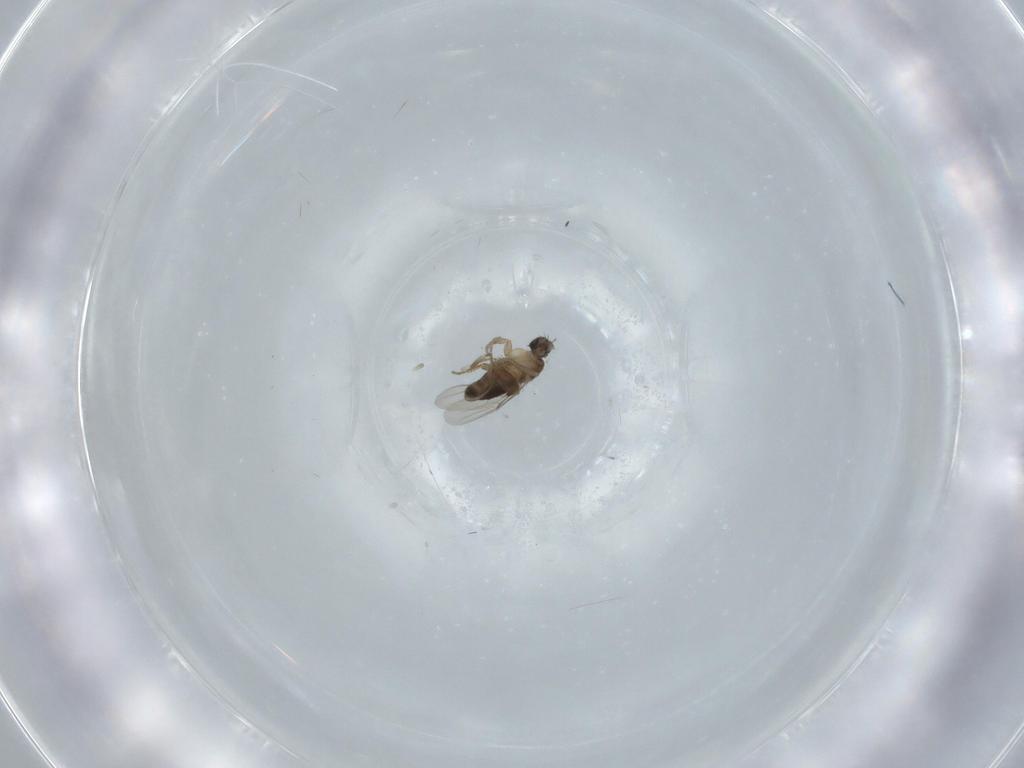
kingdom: Animalia
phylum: Arthropoda
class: Insecta
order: Diptera
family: Phoridae
